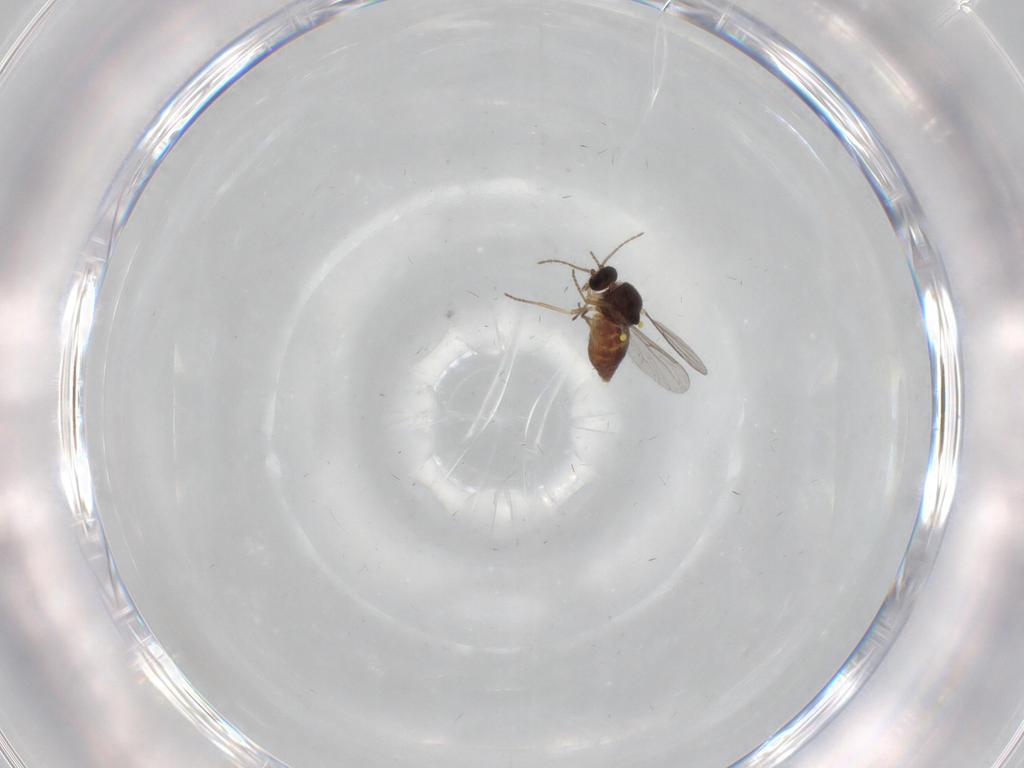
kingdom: Animalia
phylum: Arthropoda
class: Insecta
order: Diptera
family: Ceratopogonidae
